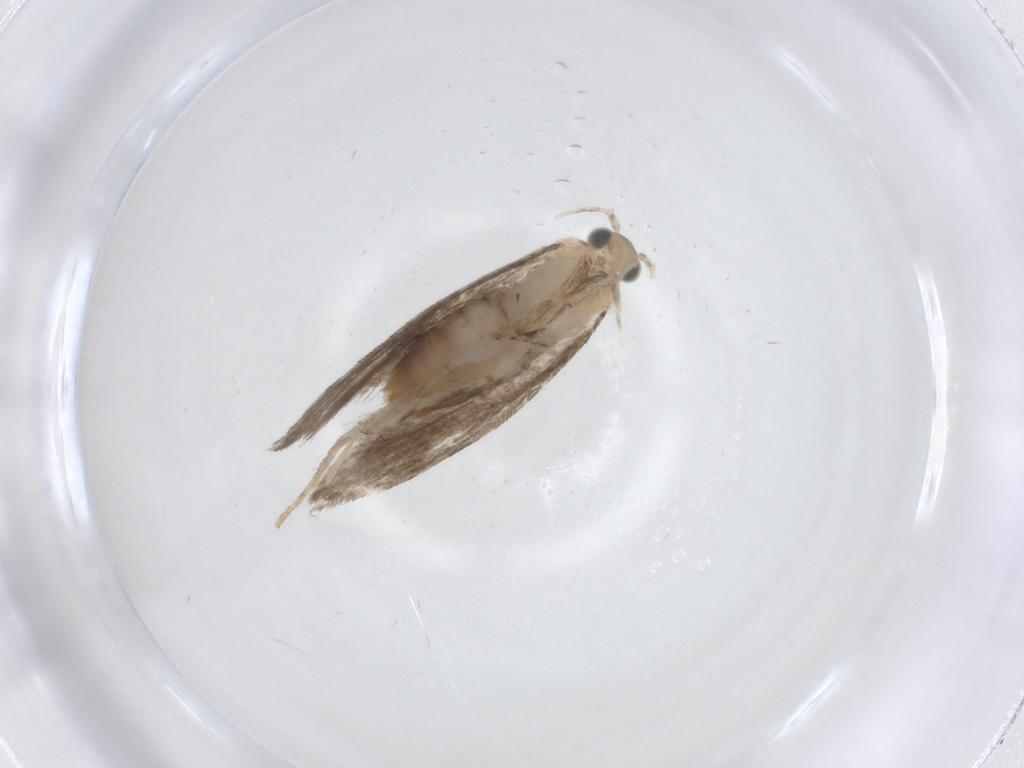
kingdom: Animalia
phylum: Arthropoda
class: Insecta
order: Lepidoptera
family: Tineidae
